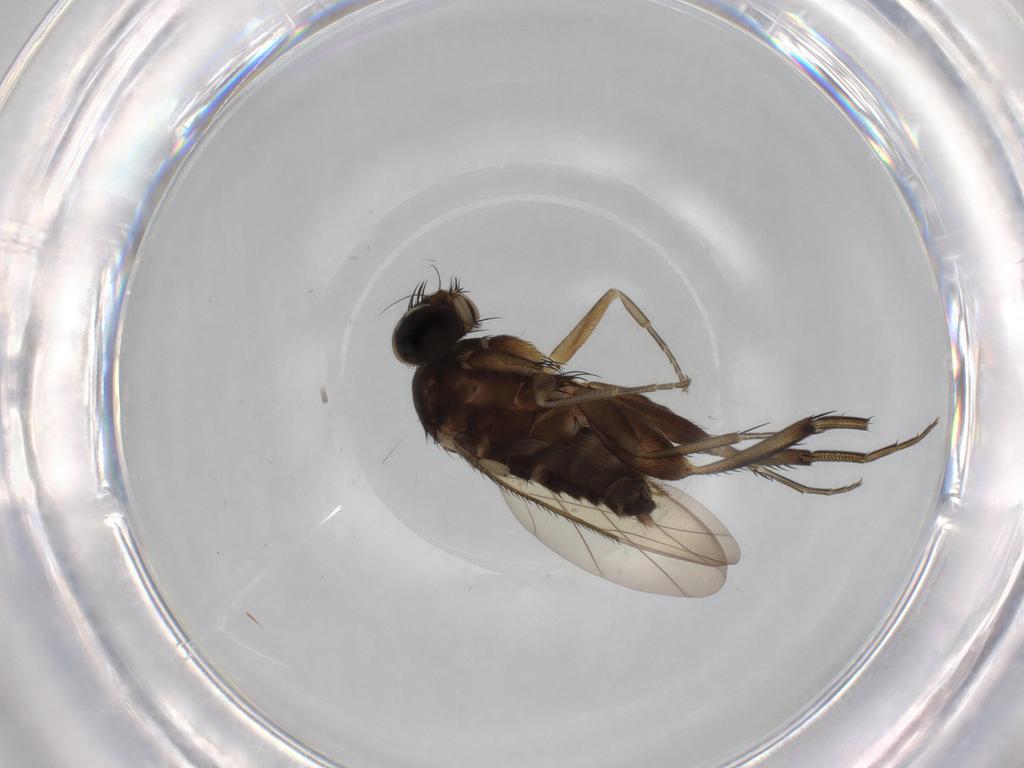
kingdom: Animalia
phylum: Arthropoda
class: Insecta
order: Diptera
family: Phoridae
